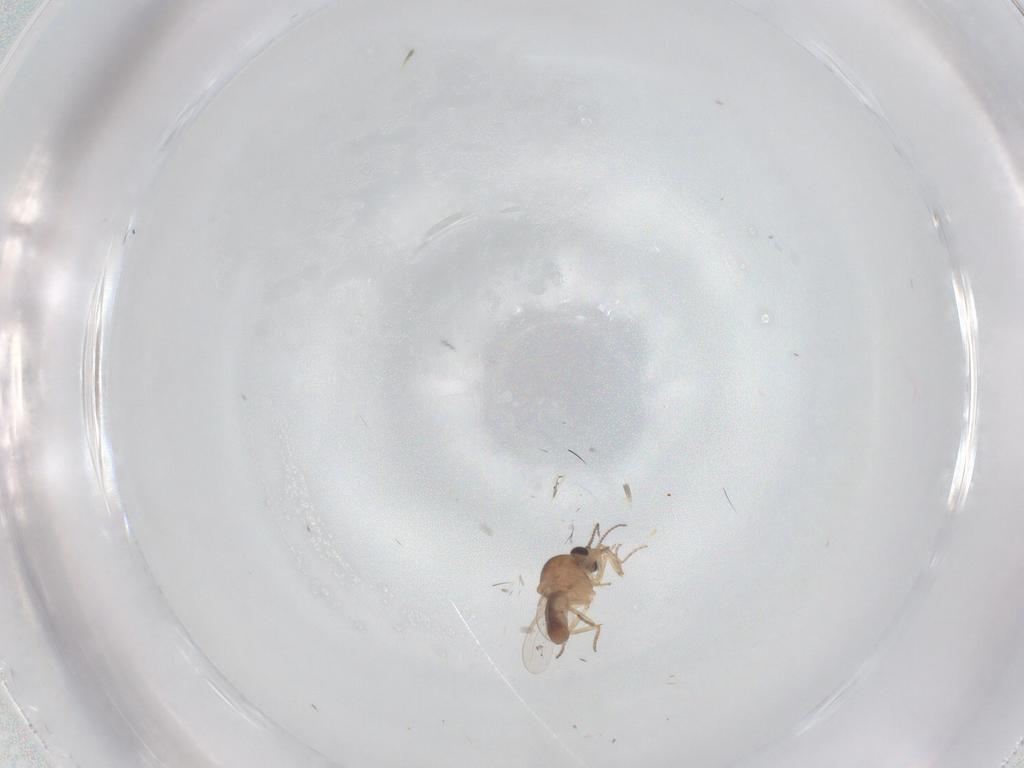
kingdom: Animalia
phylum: Arthropoda
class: Insecta
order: Diptera
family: Ceratopogonidae
